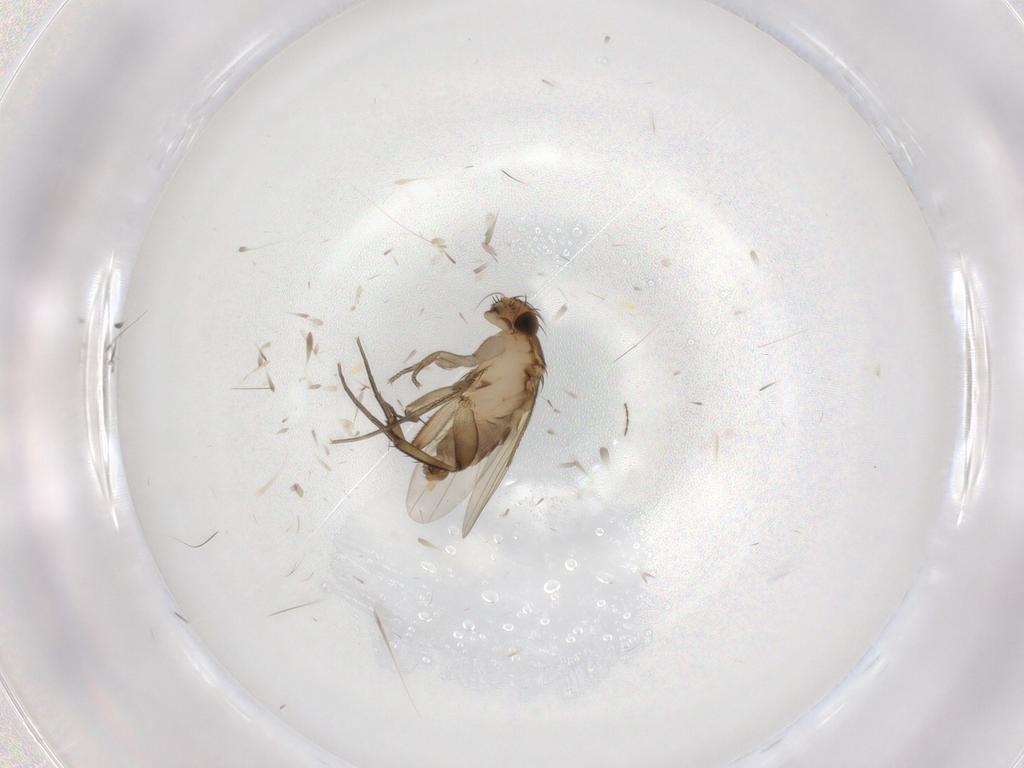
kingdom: Animalia
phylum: Arthropoda
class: Insecta
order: Diptera
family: Phoridae
